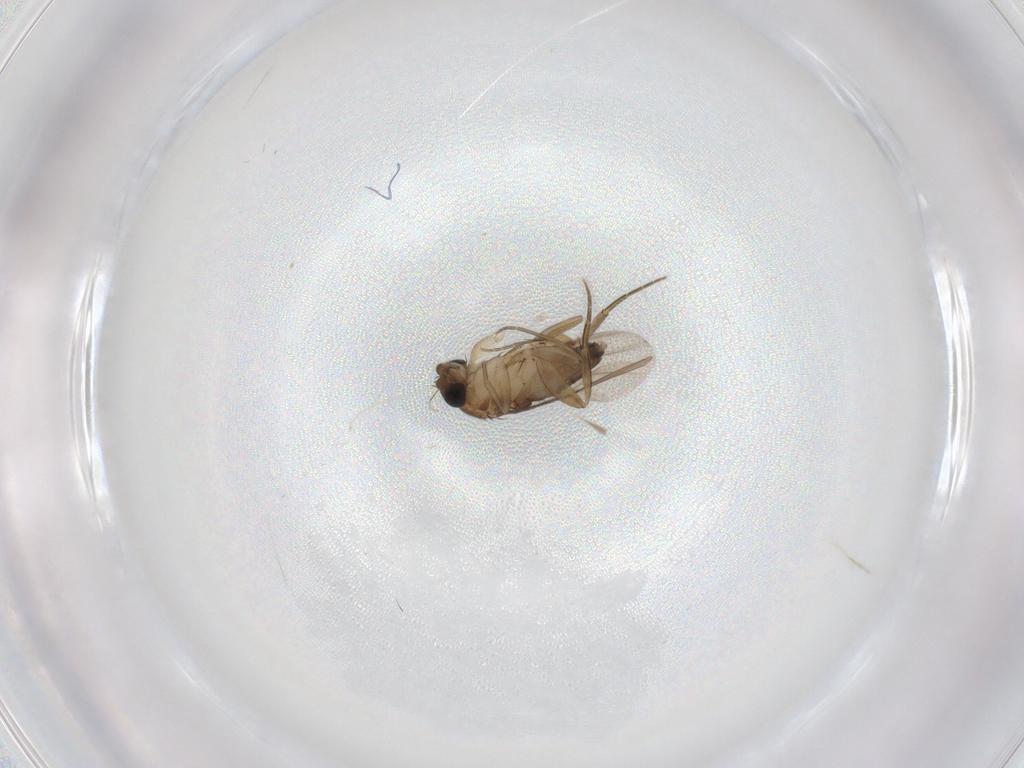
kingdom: Animalia
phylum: Arthropoda
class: Insecta
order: Diptera
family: Phoridae
